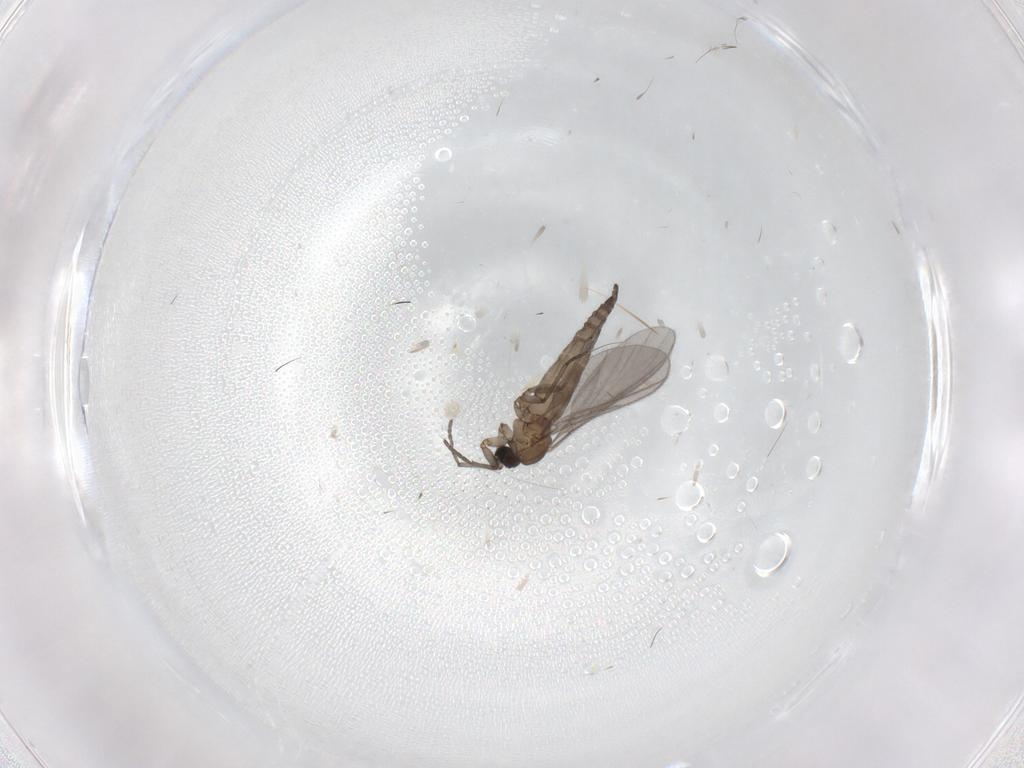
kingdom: Animalia
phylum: Arthropoda
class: Insecta
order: Diptera
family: Sciaridae
